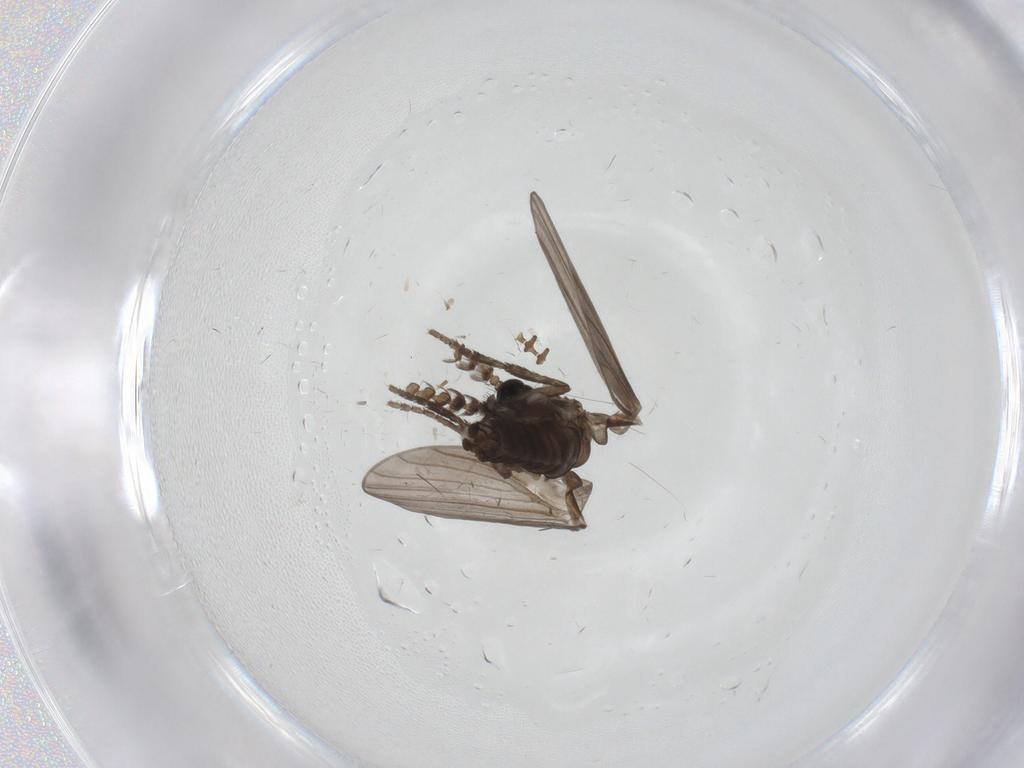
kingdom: Animalia
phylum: Arthropoda
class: Insecta
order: Diptera
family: Psychodidae
